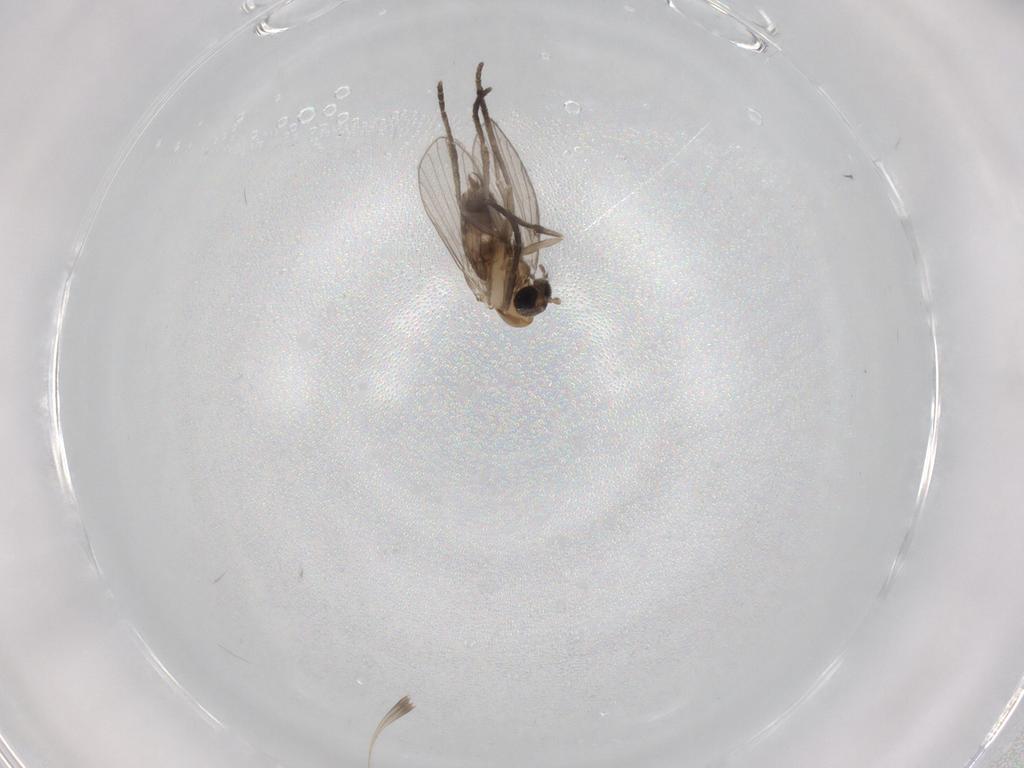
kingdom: Animalia
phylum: Arthropoda
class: Insecta
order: Diptera
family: Psychodidae
